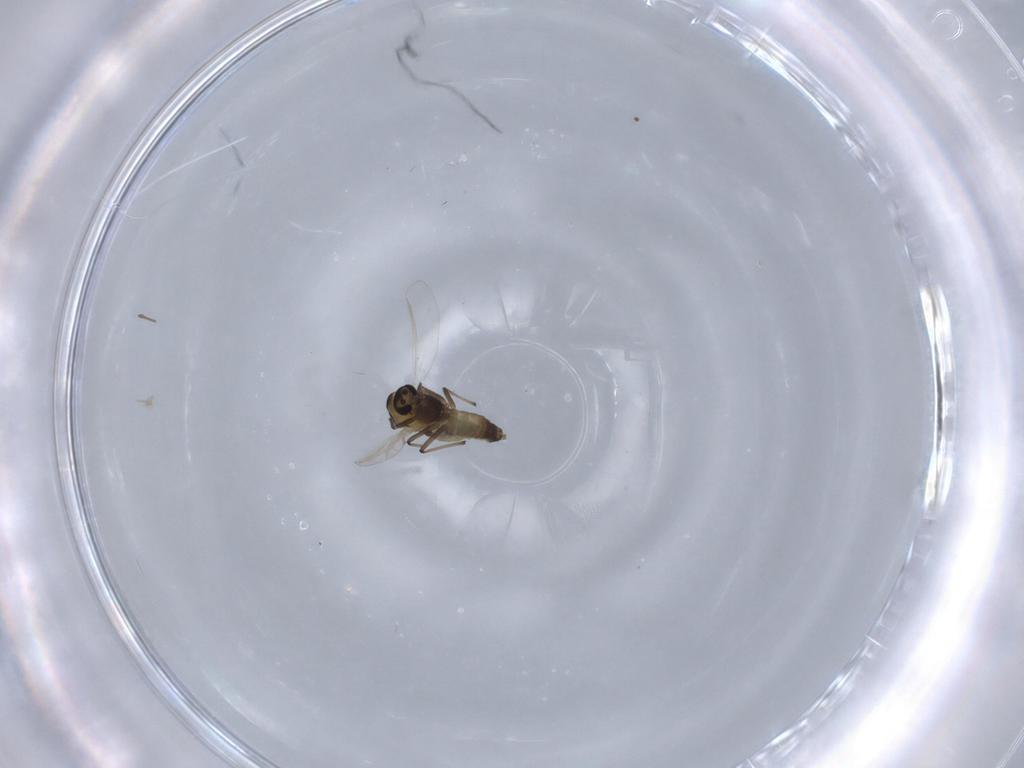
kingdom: Animalia
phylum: Arthropoda
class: Insecta
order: Diptera
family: Chironomidae
